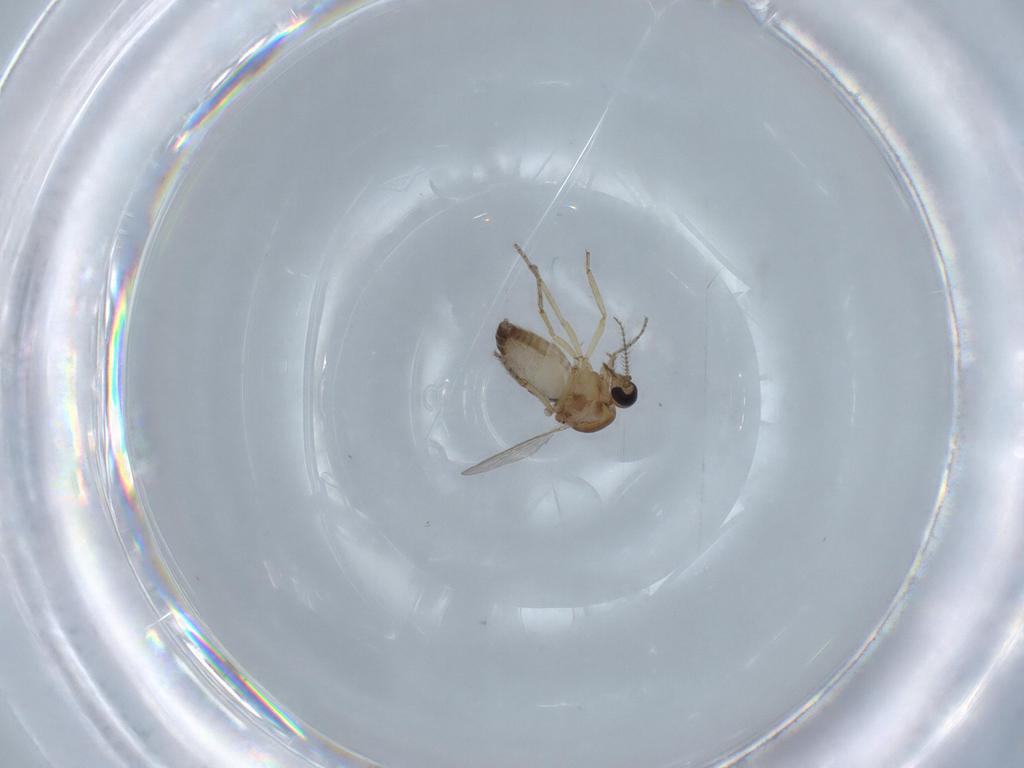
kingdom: Animalia
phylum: Arthropoda
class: Insecta
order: Diptera
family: Ceratopogonidae
